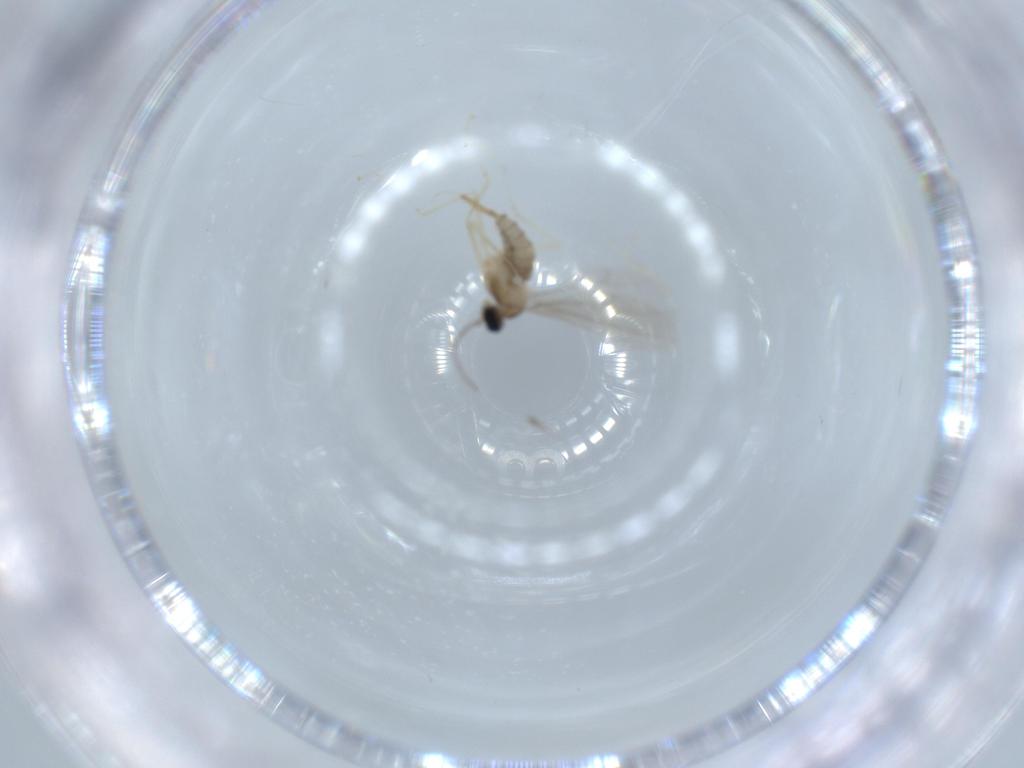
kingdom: Animalia
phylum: Arthropoda
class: Insecta
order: Diptera
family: Cecidomyiidae
